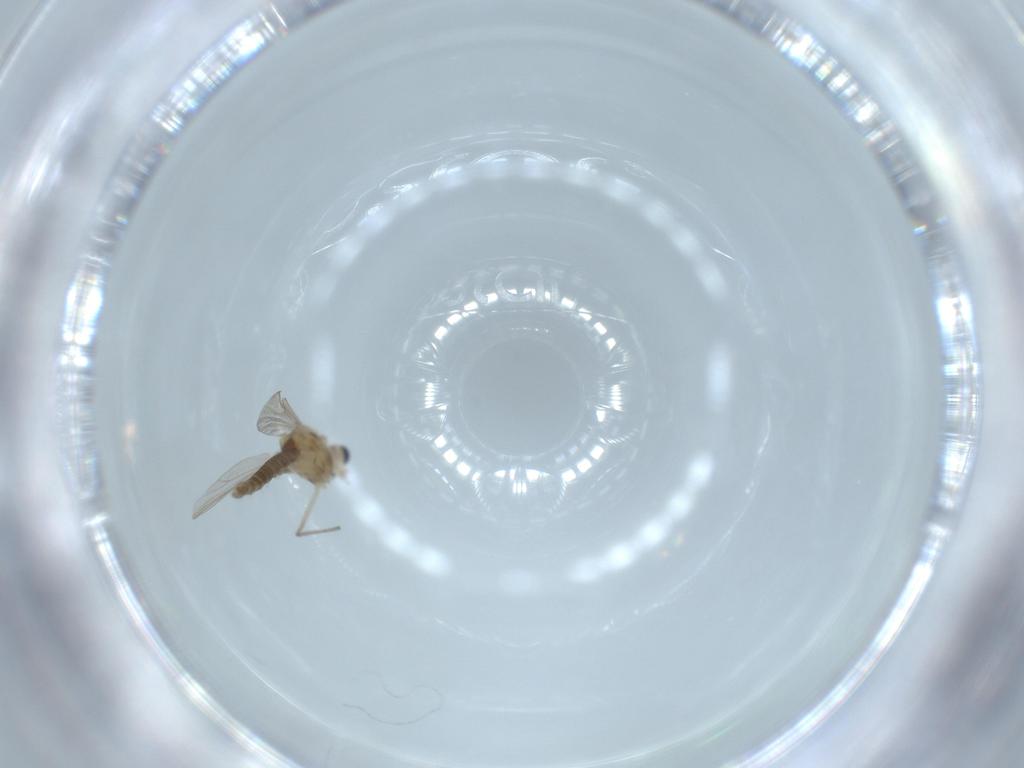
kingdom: Animalia
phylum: Arthropoda
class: Insecta
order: Diptera
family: Chironomidae
